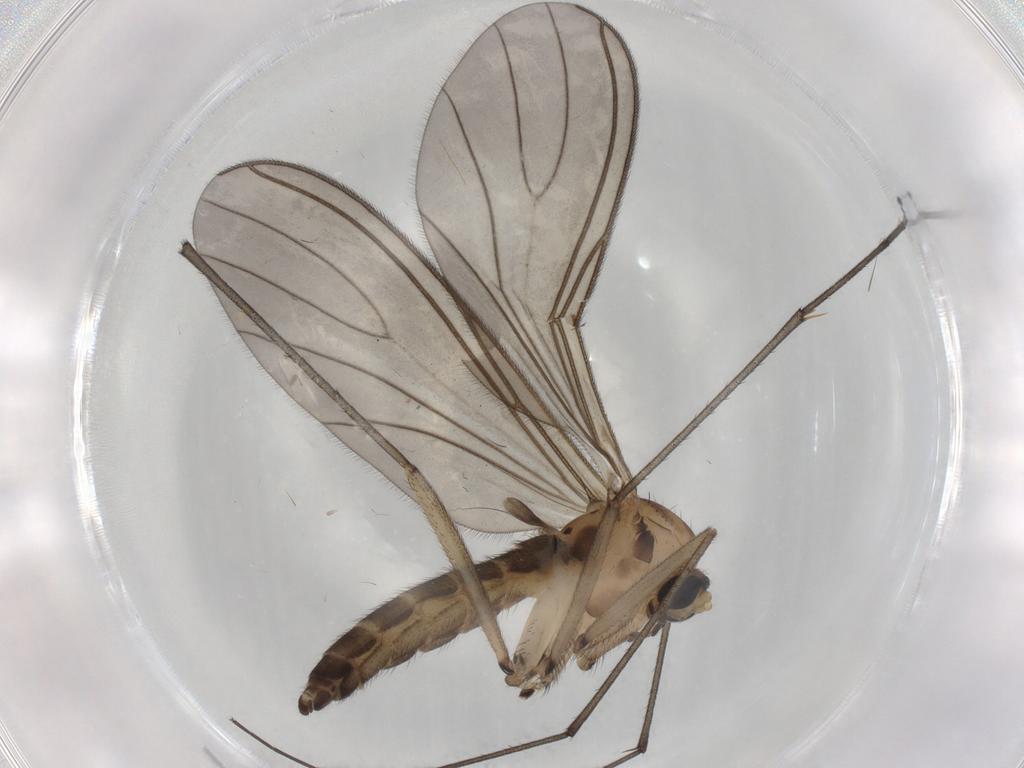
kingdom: Animalia
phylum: Arthropoda
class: Insecta
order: Diptera
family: Sciaridae
